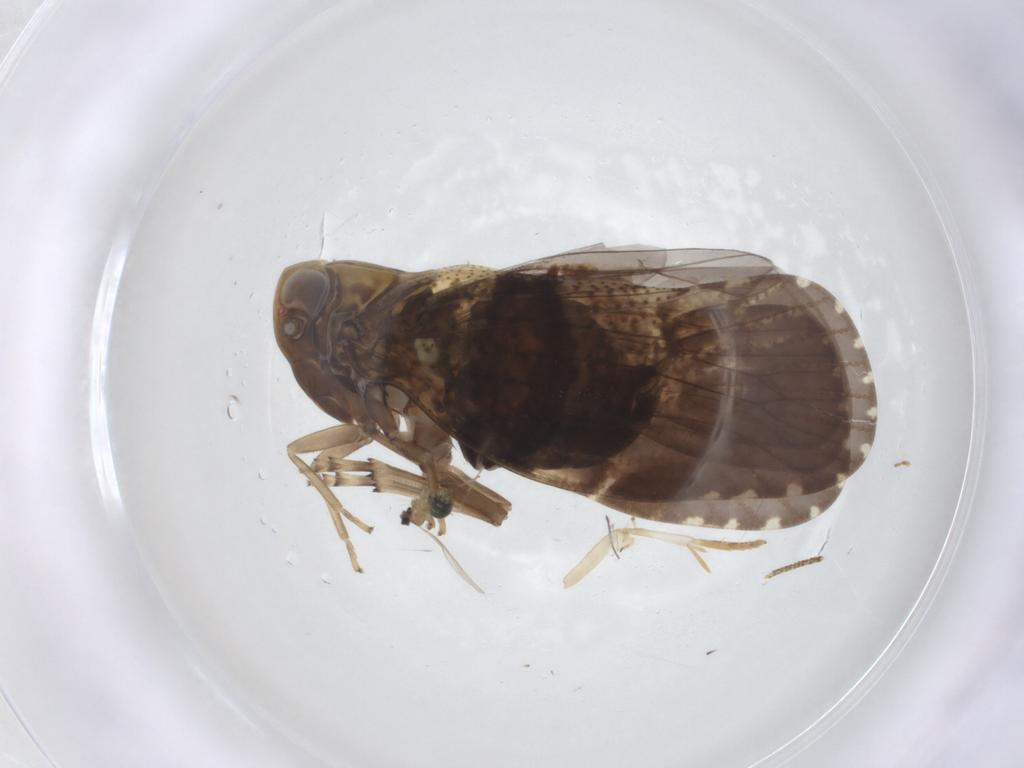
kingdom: Animalia
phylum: Arthropoda
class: Insecta
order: Hemiptera
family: Cixiidae
